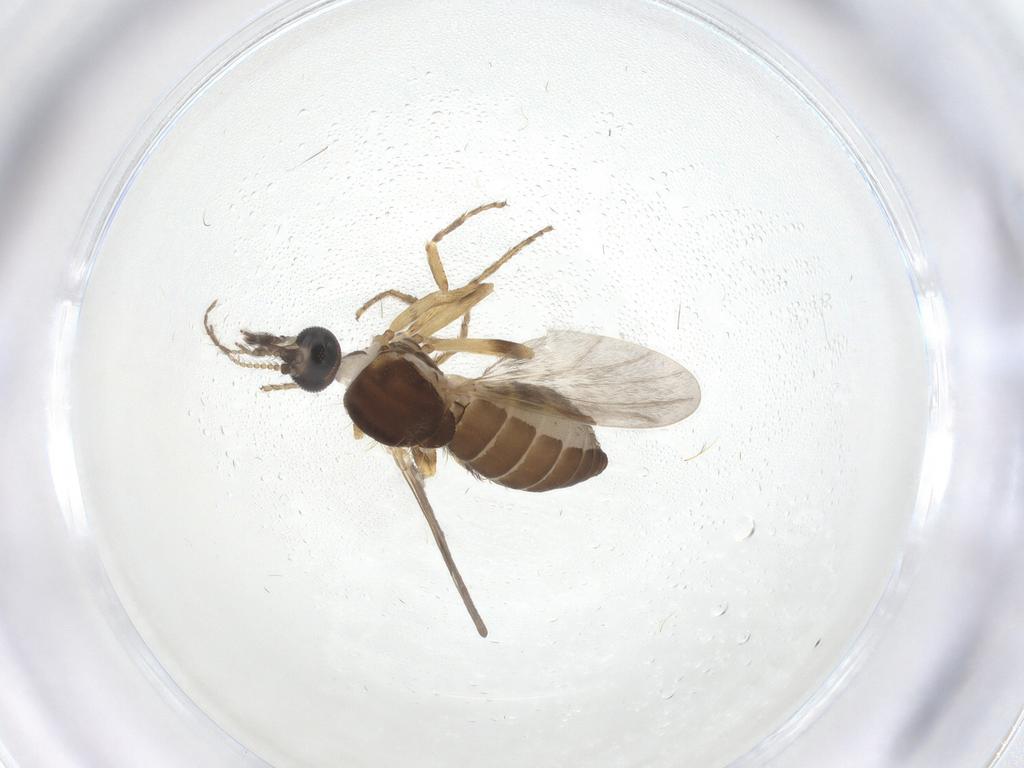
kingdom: Animalia
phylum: Arthropoda
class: Insecta
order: Diptera
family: Ceratopogonidae
